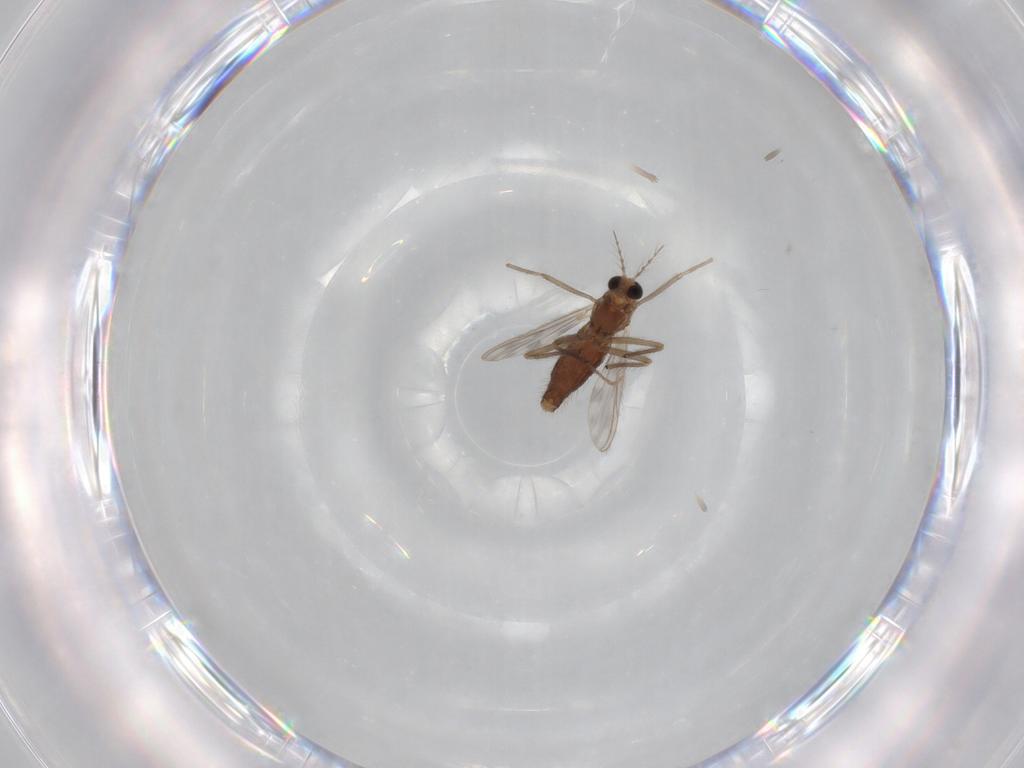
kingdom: Animalia
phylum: Arthropoda
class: Insecta
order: Diptera
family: Chironomidae
